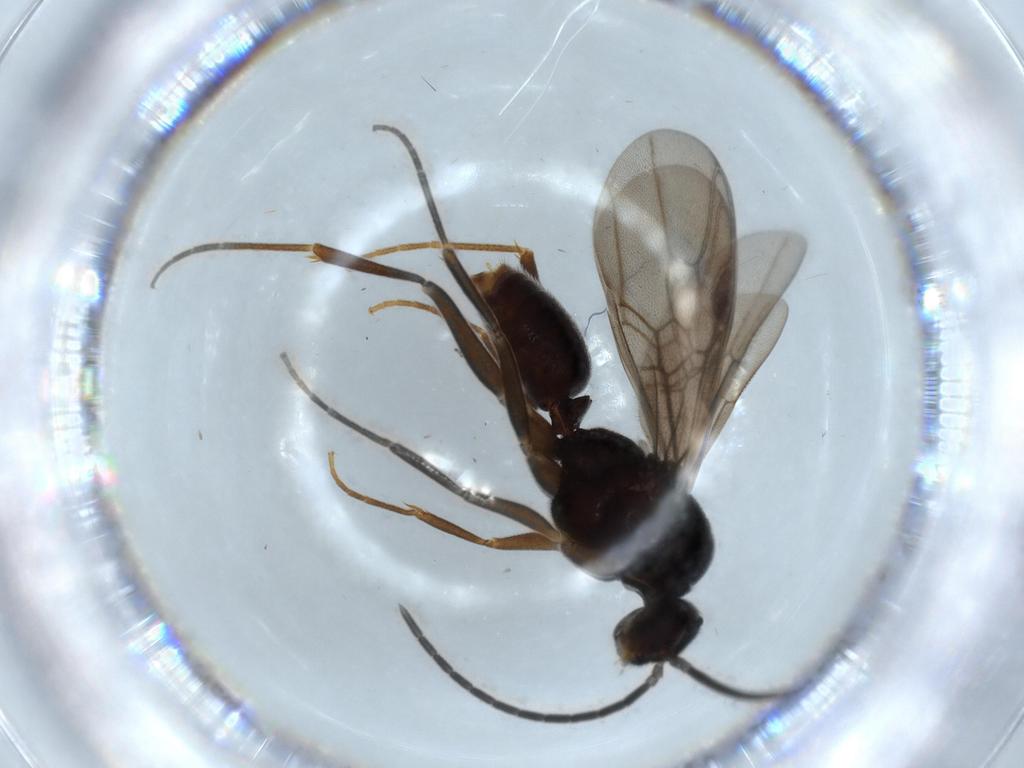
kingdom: Animalia
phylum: Arthropoda
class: Insecta
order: Hymenoptera
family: Formicidae
